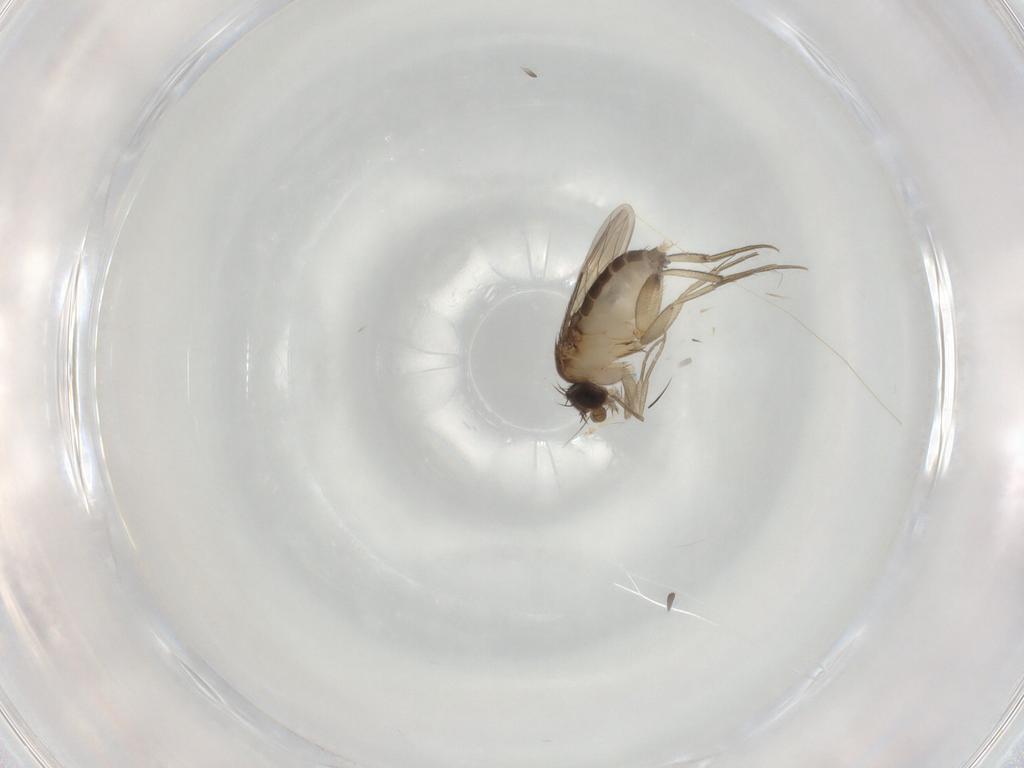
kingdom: Animalia
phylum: Arthropoda
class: Insecta
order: Diptera
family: Phoridae
